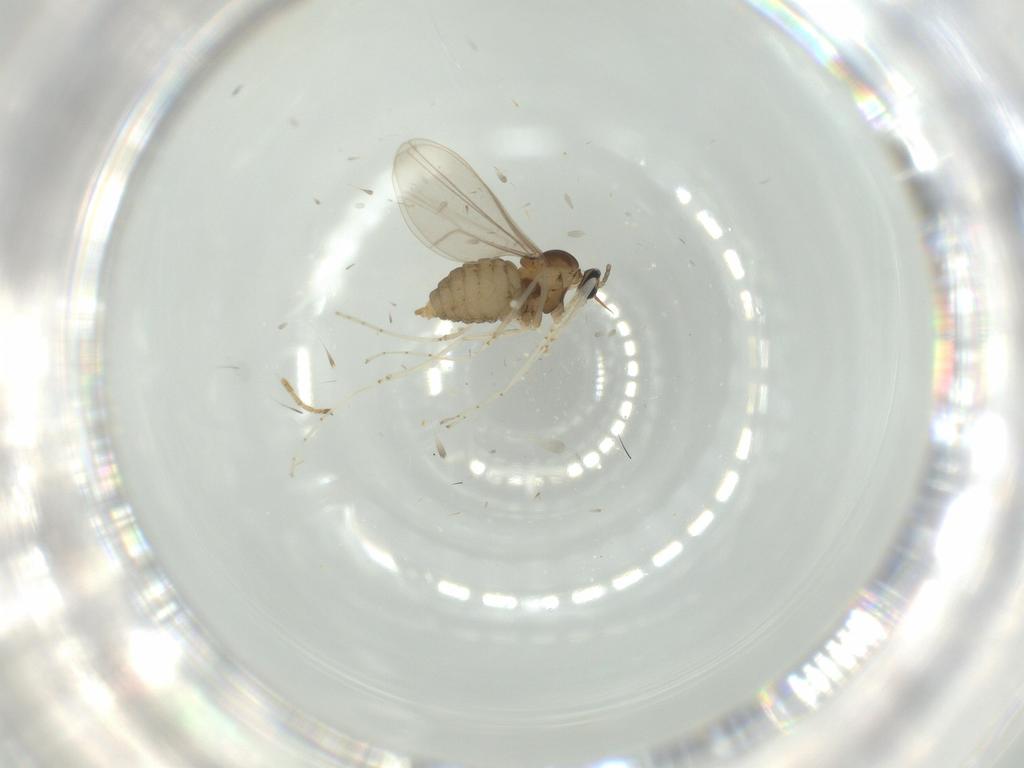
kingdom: Animalia
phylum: Arthropoda
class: Insecta
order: Diptera
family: Cecidomyiidae
